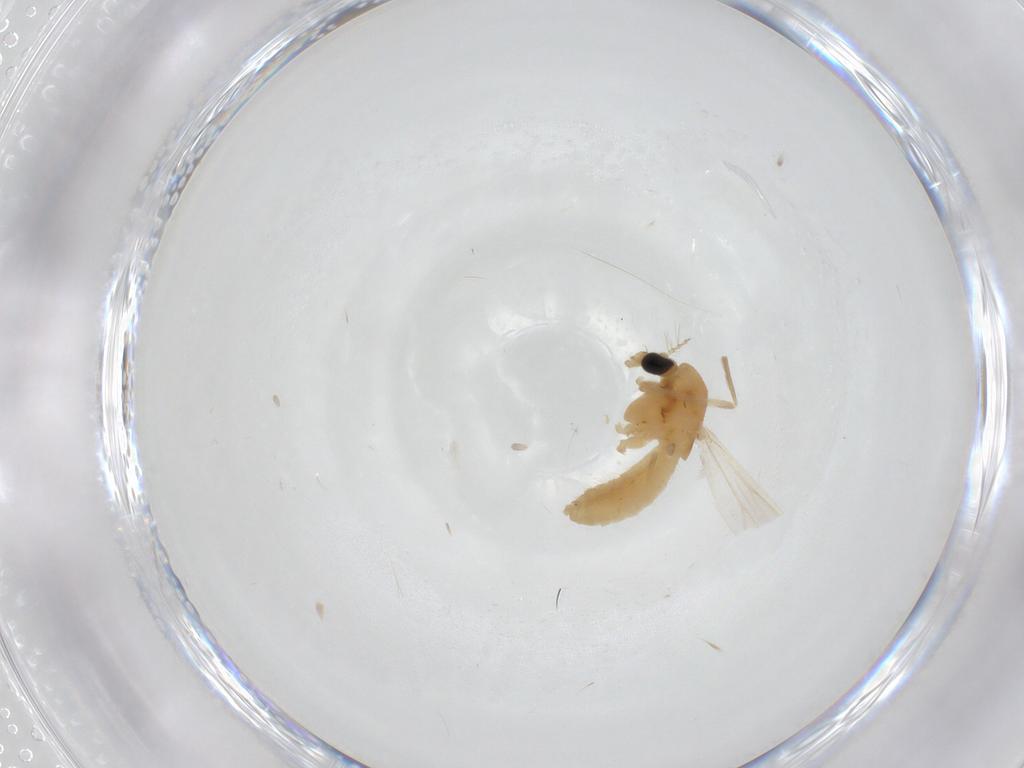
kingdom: Animalia
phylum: Arthropoda
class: Insecta
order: Diptera
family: Chironomidae
